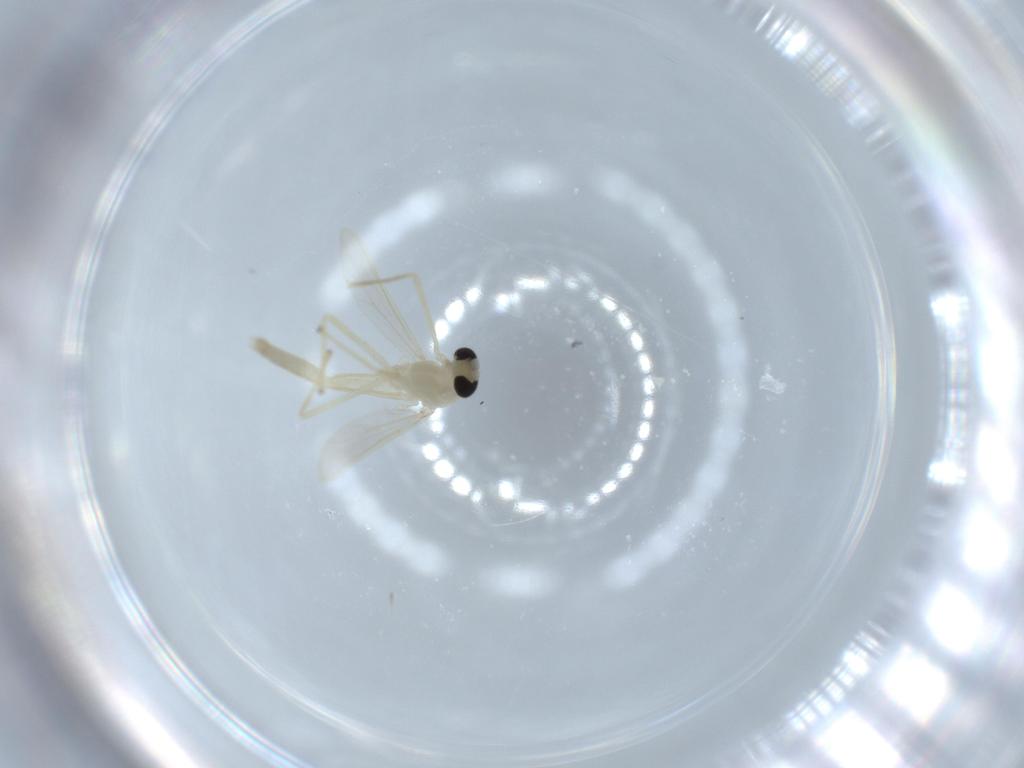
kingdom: Animalia
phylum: Arthropoda
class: Insecta
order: Diptera
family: Chironomidae
